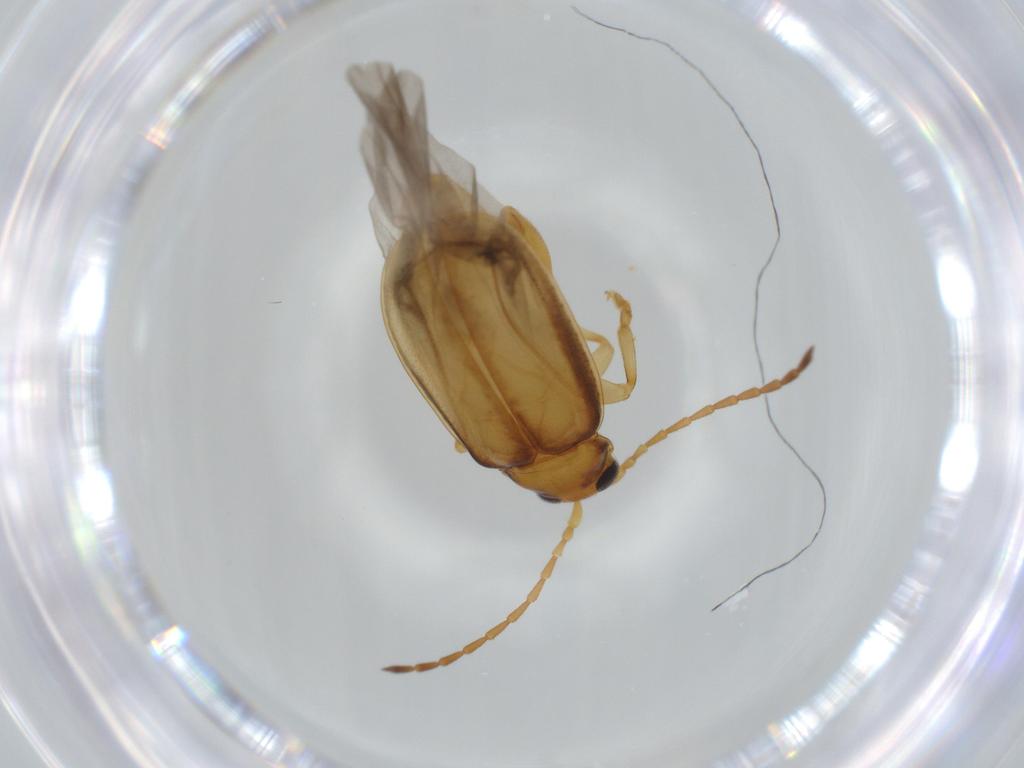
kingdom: Animalia
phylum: Arthropoda
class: Insecta
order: Coleoptera
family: Chrysomelidae
